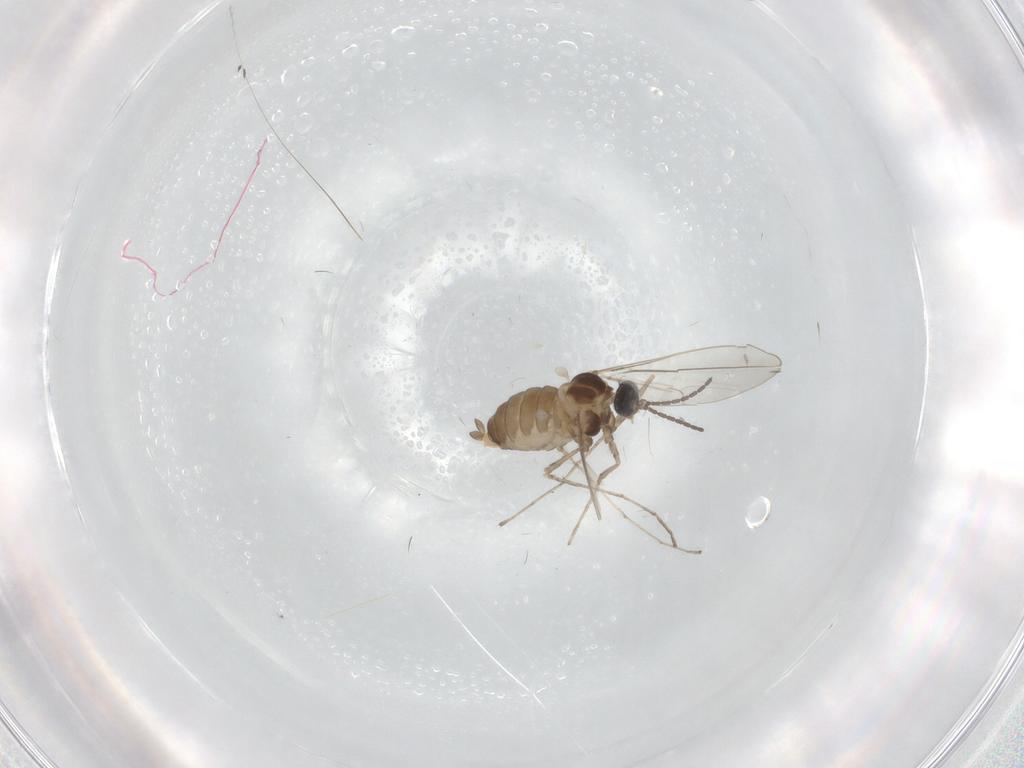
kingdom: Animalia
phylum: Arthropoda
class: Insecta
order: Diptera
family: Cecidomyiidae
